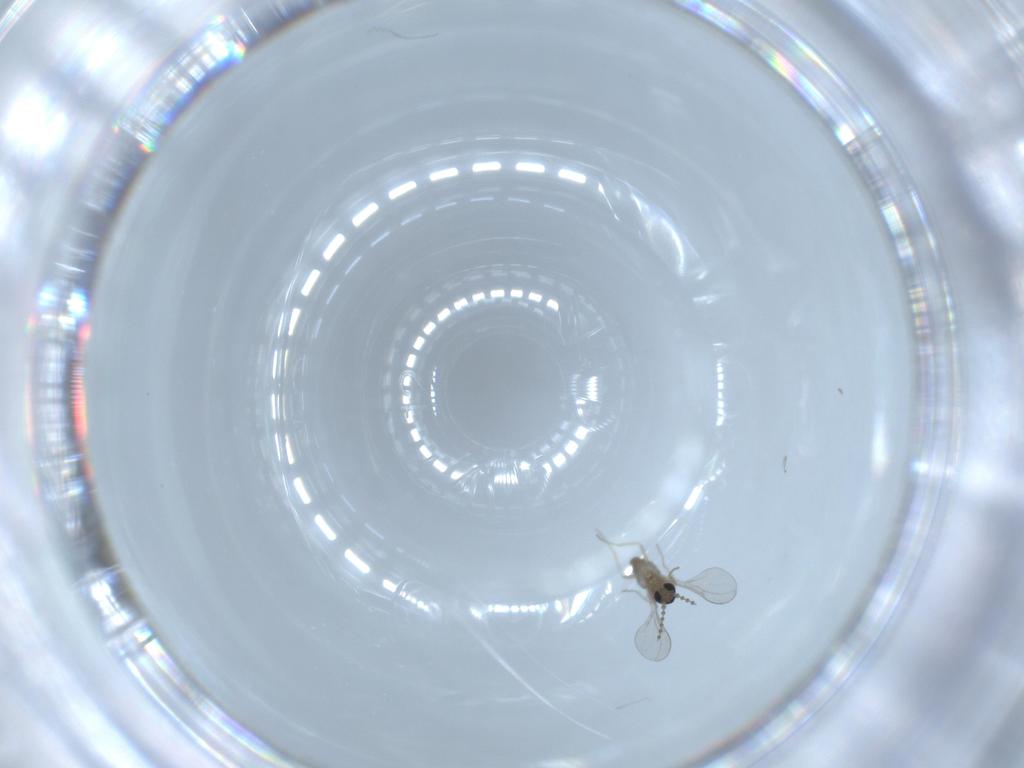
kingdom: Animalia
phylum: Arthropoda
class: Insecta
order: Diptera
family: Cecidomyiidae
